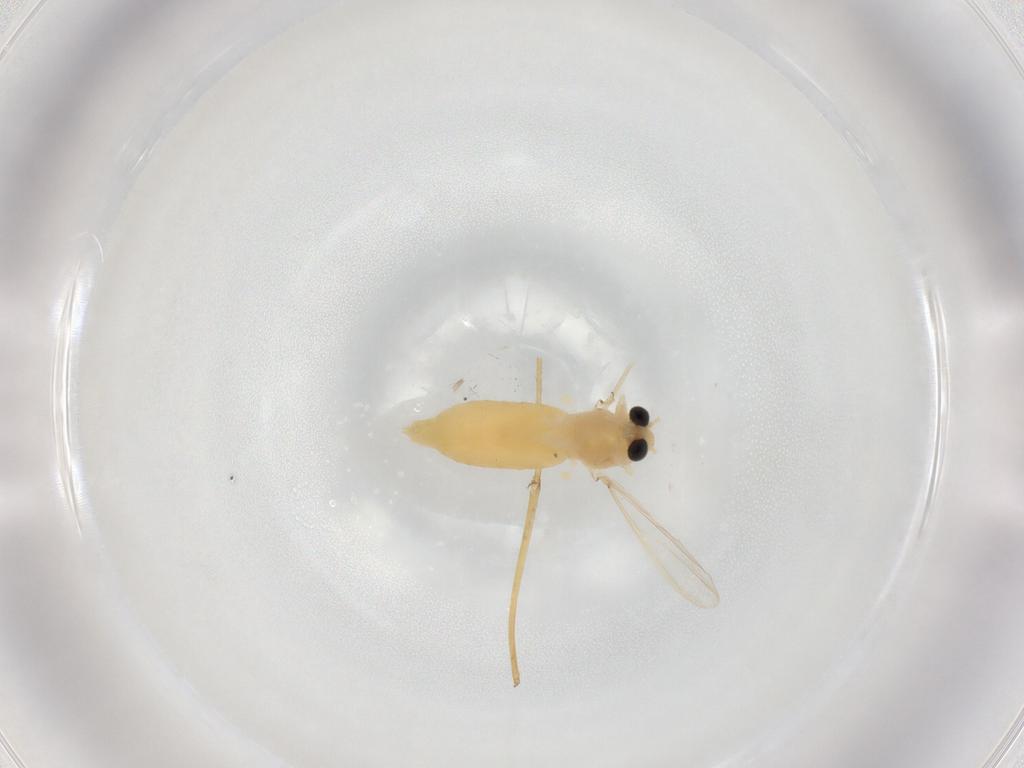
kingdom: Animalia
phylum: Arthropoda
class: Insecta
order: Diptera
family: Chironomidae
